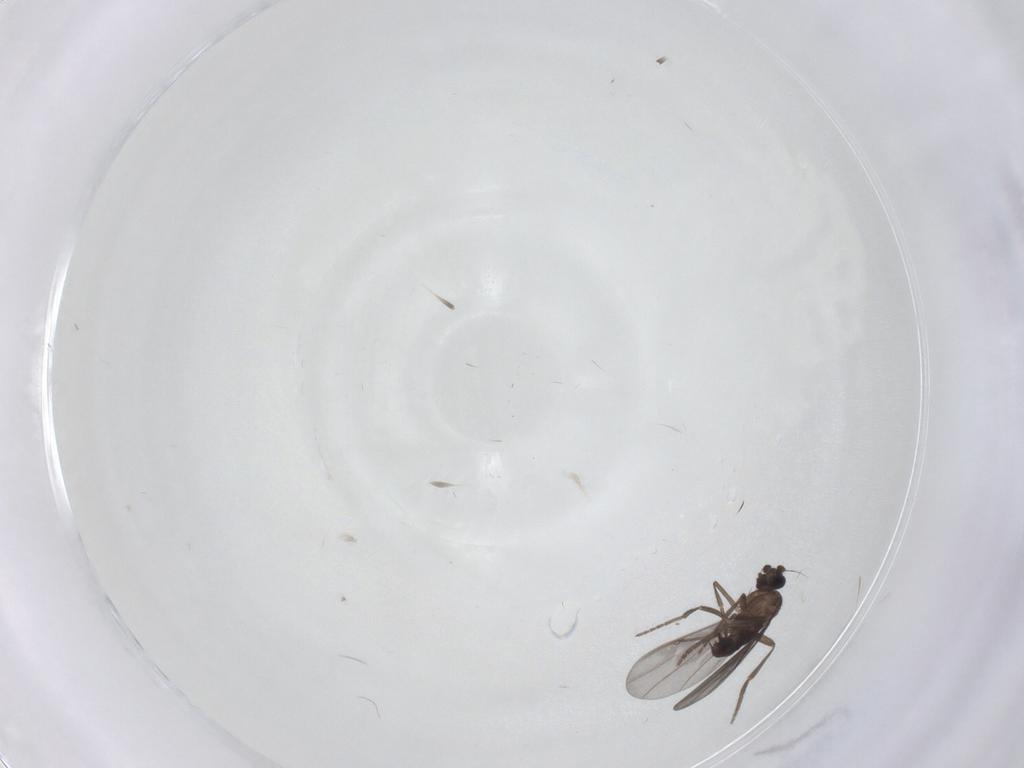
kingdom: Animalia
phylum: Arthropoda
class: Insecta
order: Diptera
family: Phoridae
